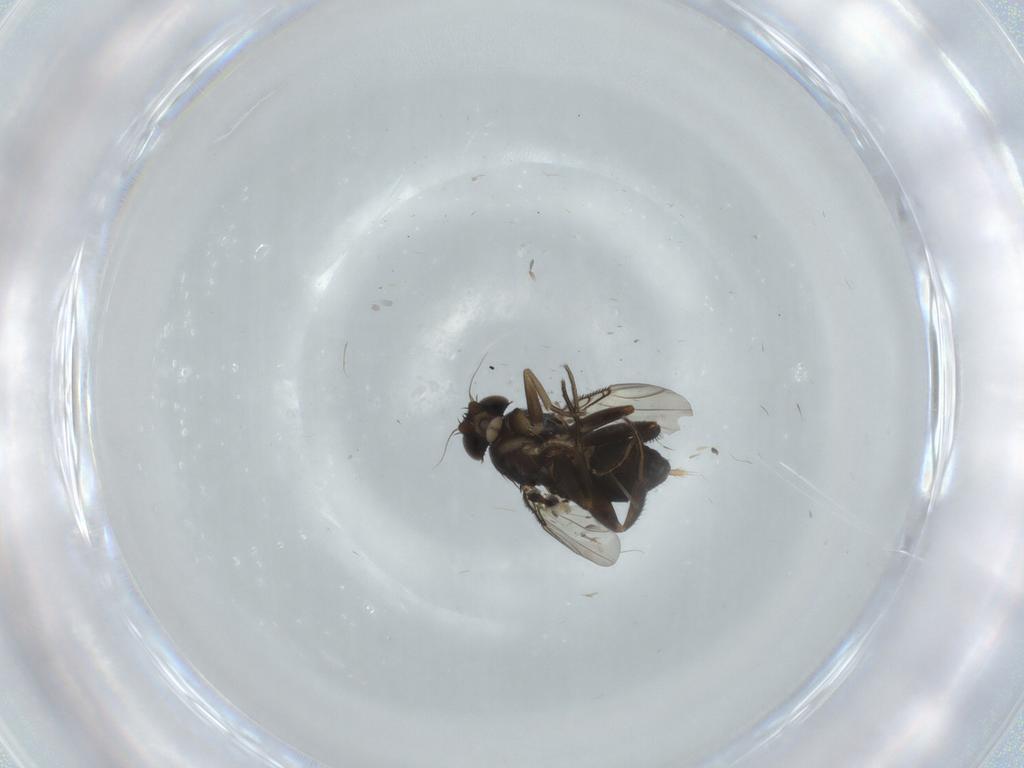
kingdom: Animalia
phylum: Arthropoda
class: Insecta
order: Diptera
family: Phoridae
